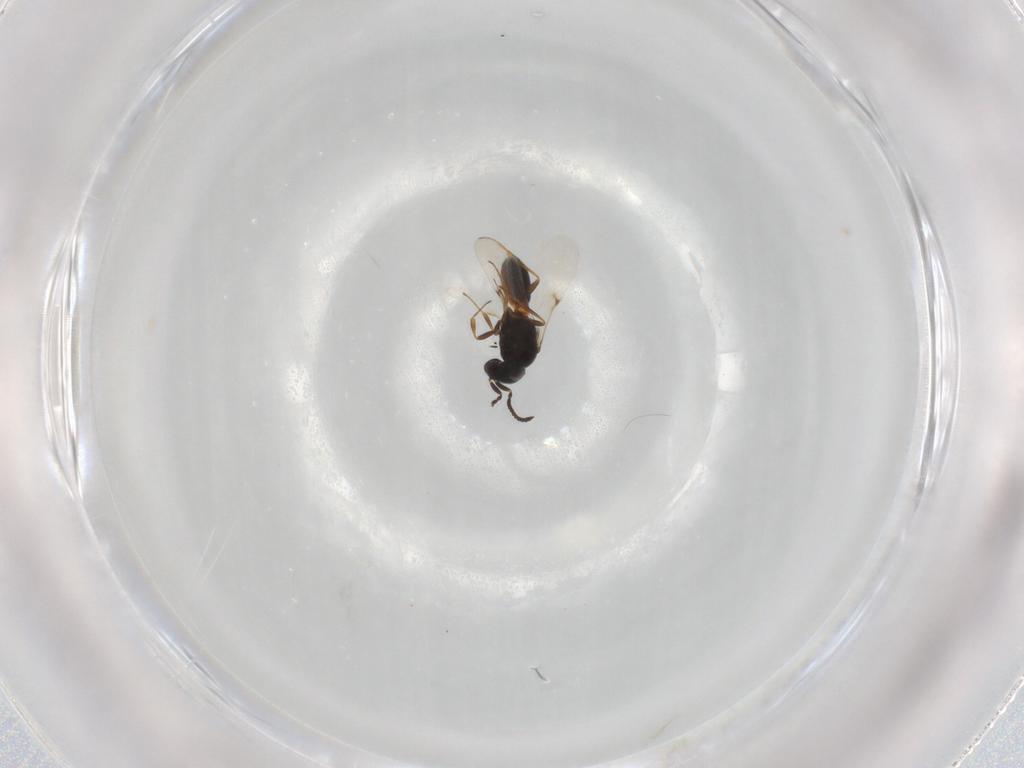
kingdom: Animalia
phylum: Arthropoda
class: Insecta
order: Hymenoptera
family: Scelionidae
